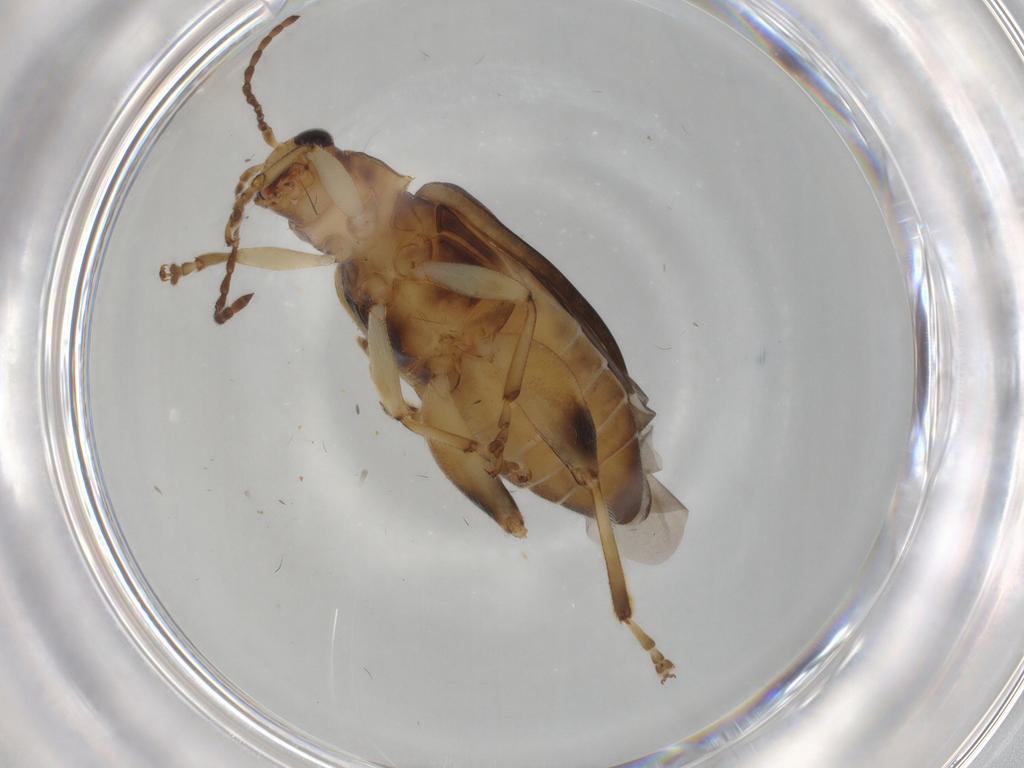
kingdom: Animalia
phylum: Arthropoda
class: Insecta
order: Coleoptera
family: Chrysomelidae
